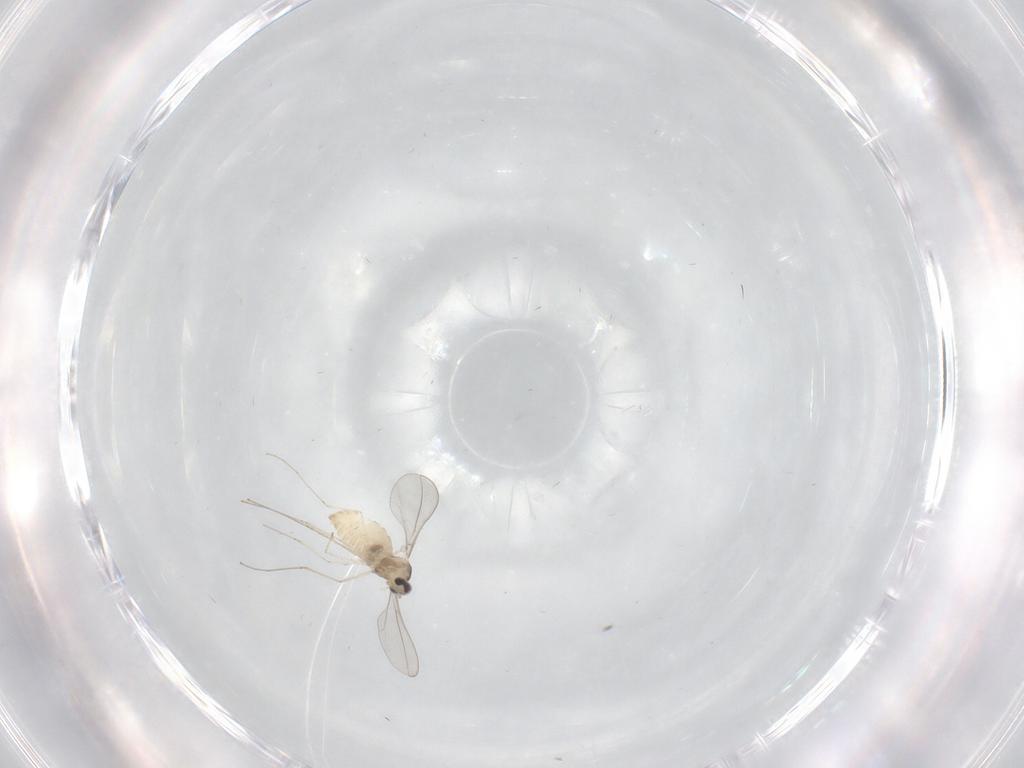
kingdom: Animalia
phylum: Arthropoda
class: Insecta
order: Diptera
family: Cecidomyiidae
